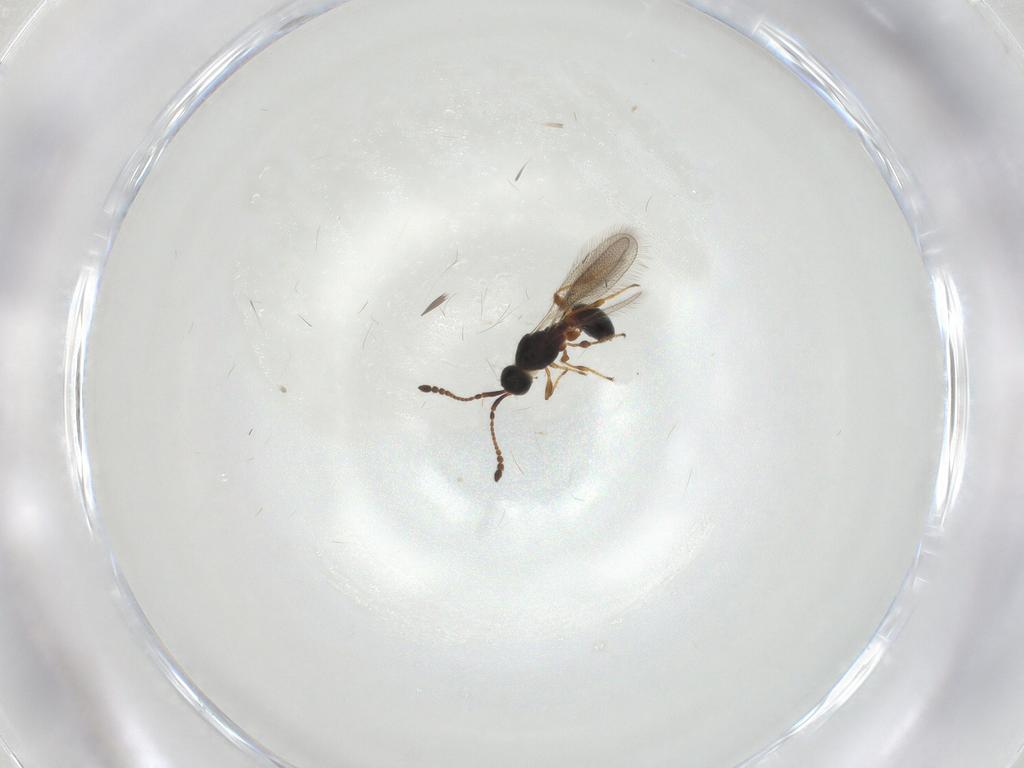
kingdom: Animalia
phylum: Arthropoda
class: Insecta
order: Hymenoptera
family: Diapriidae
